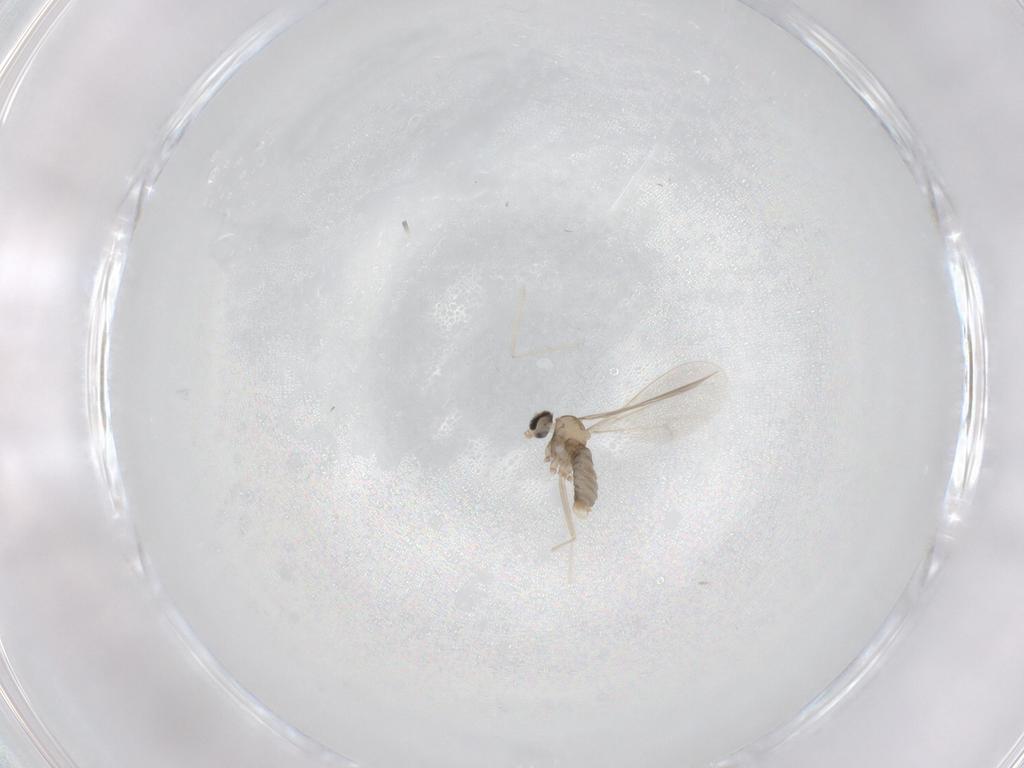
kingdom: Animalia
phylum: Arthropoda
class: Insecta
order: Diptera
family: Cecidomyiidae
